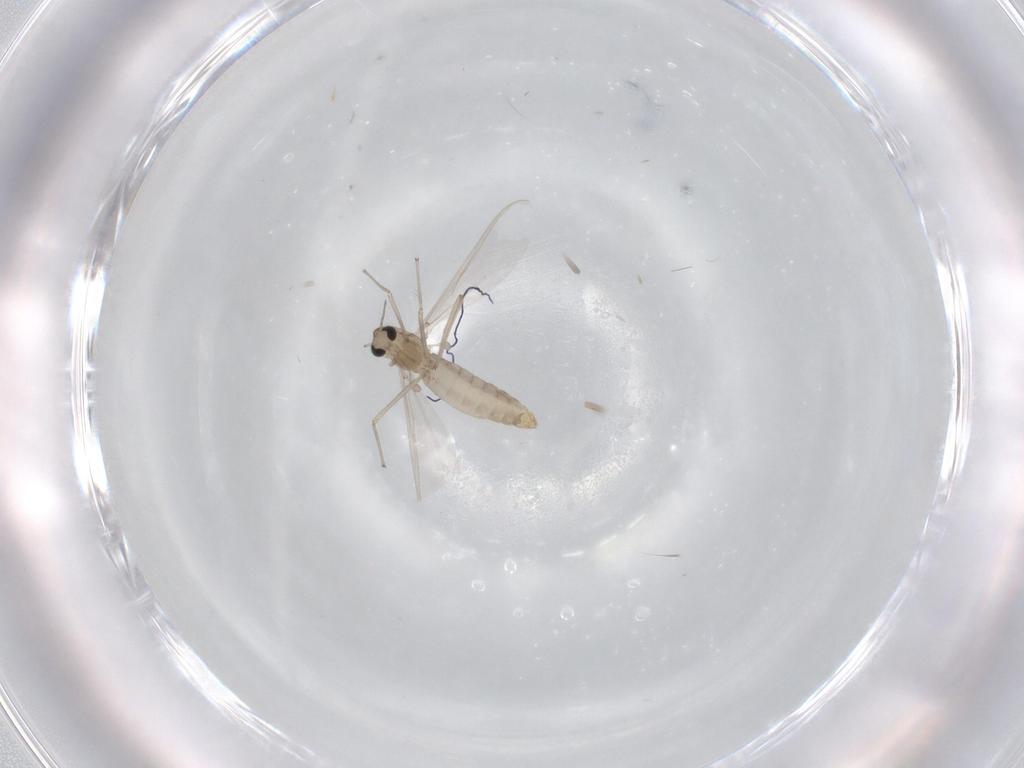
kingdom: Animalia
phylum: Arthropoda
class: Insecta
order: Diptera
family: Chironomidae
